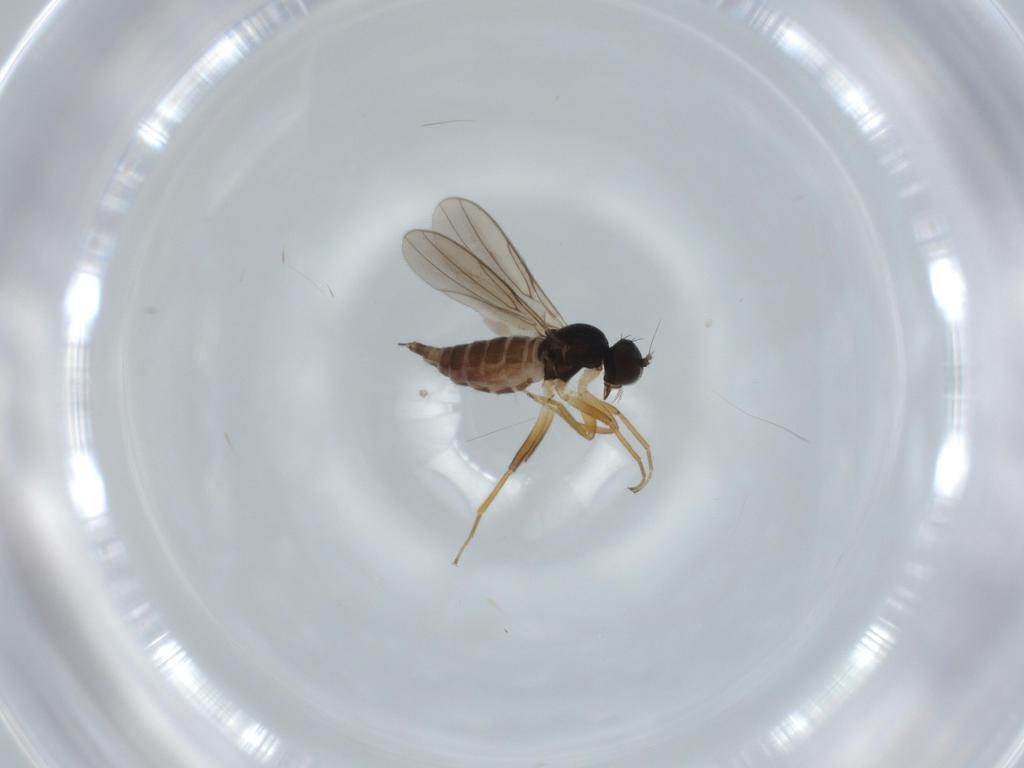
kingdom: Animalia
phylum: Arthropoda
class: Insecta
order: Diptera
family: Hybotidae
